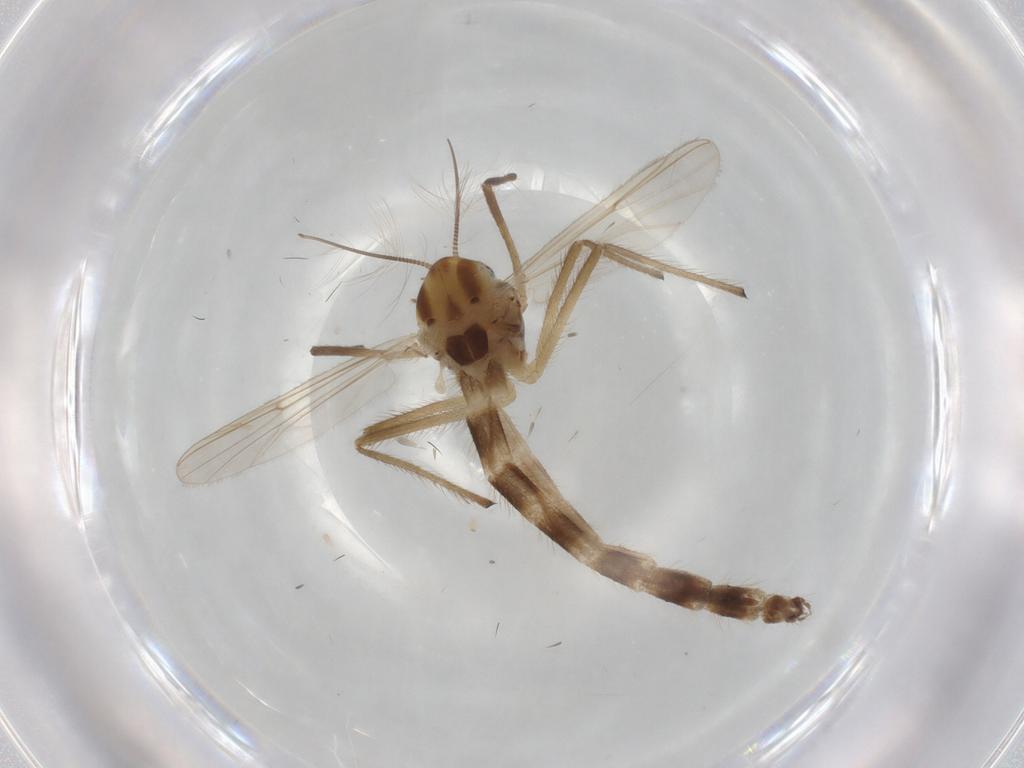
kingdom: Animalia
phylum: Arthropoda
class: Insecta
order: Diptera
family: Chironomidae
